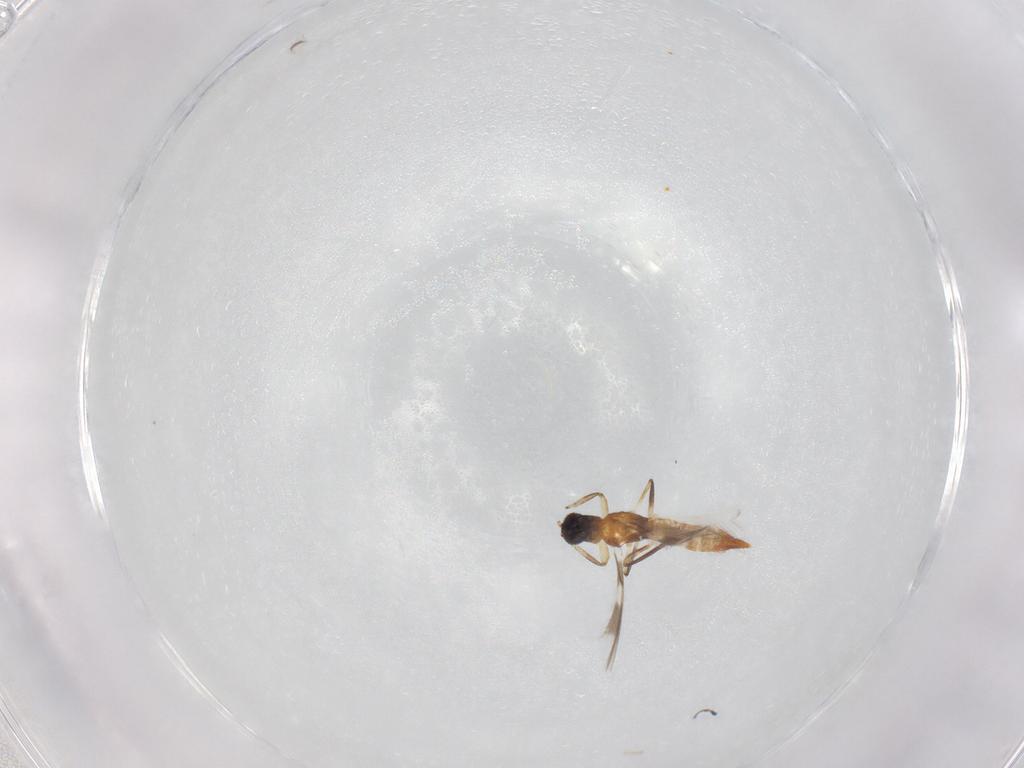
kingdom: Animalia
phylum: Arthropoda
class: Insecta
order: Thysanoptera
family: Aeolothripidae
